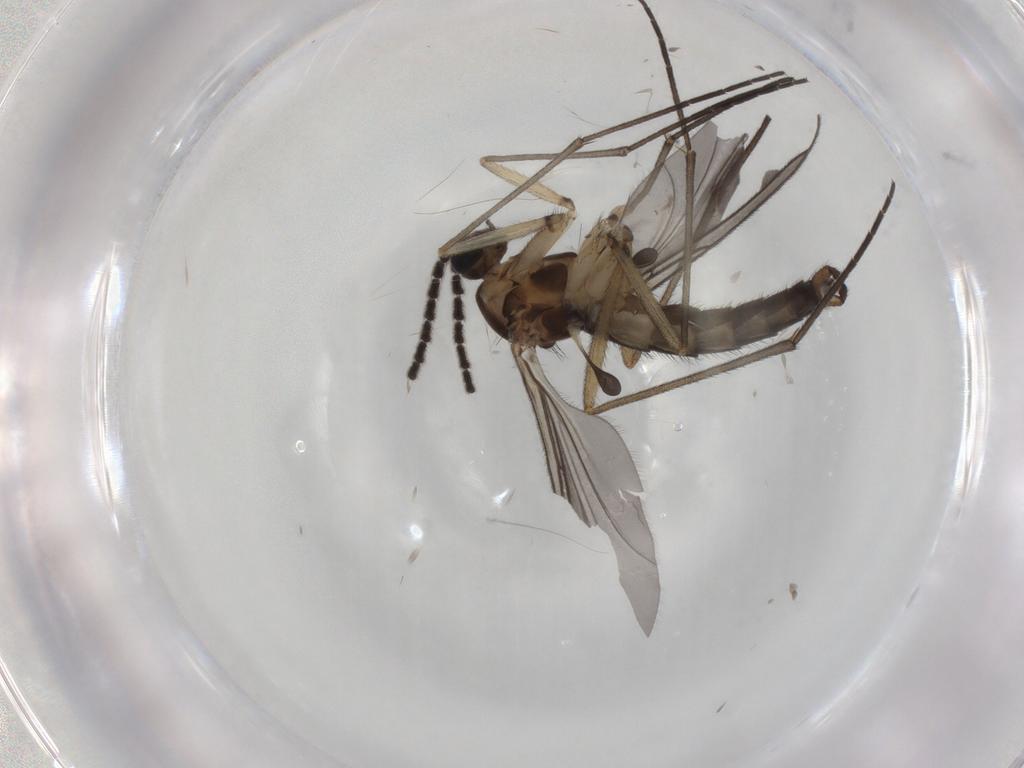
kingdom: Animalia
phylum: Arthropoda
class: Insecta
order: Diptera
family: Sciaridae
